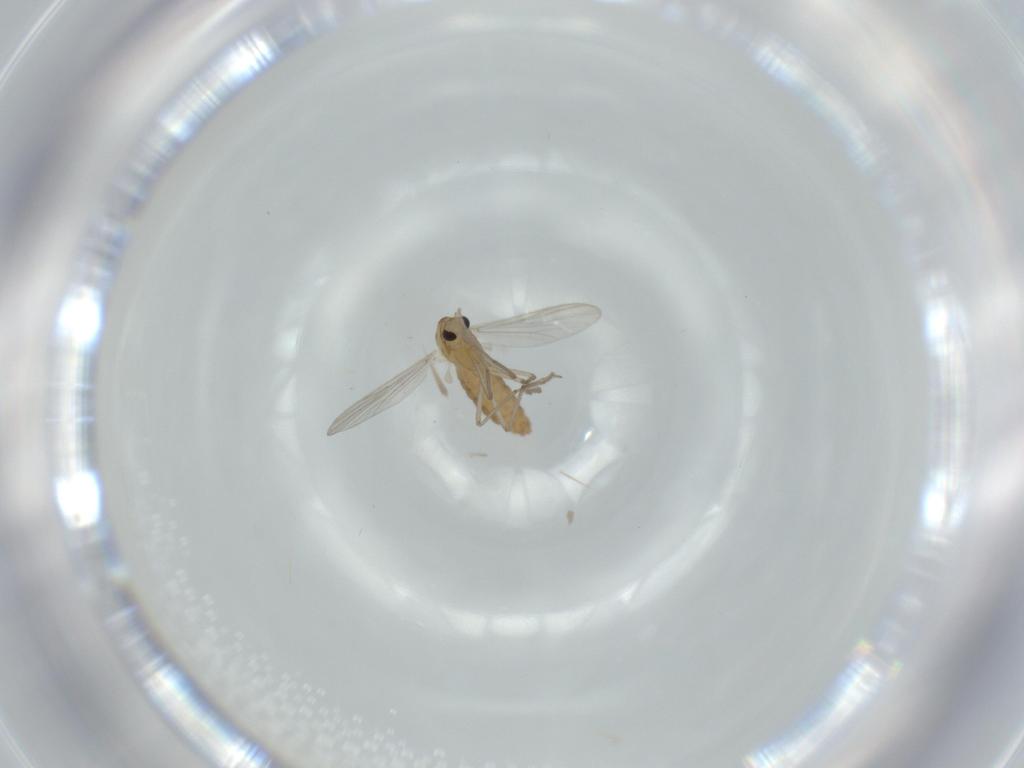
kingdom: Animalia
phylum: Arthropoda
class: Insecta
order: Diptera
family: Chironomidae
